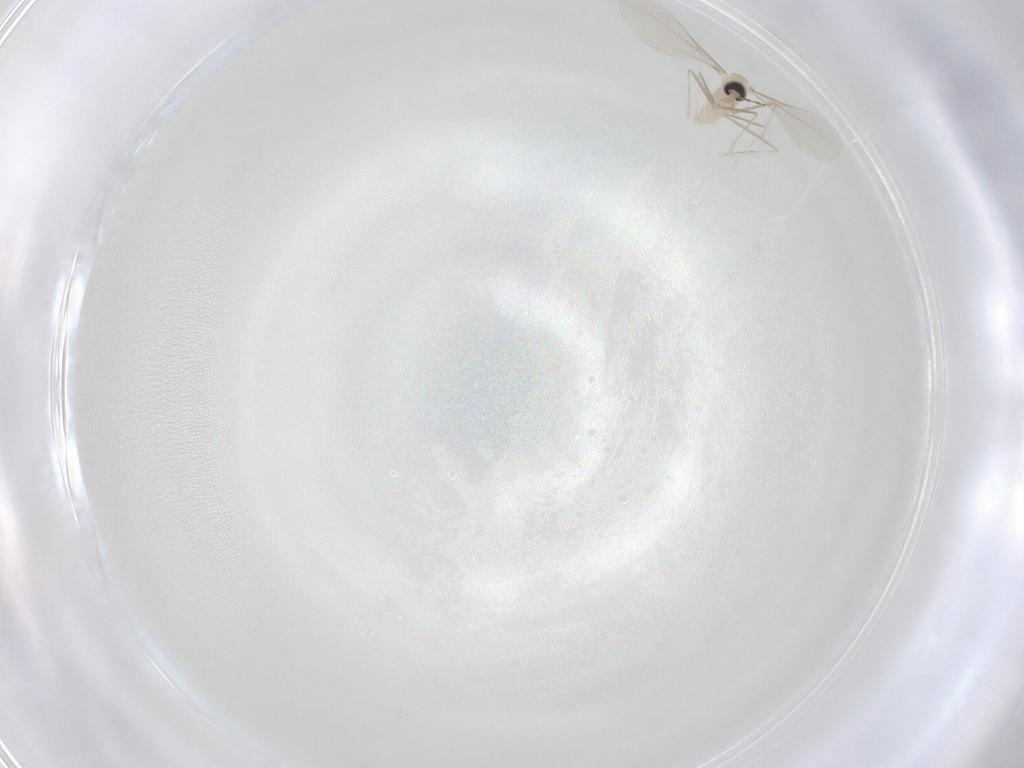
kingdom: Animalia
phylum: Arthropoda
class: Insecta
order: Diptera
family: Cecidomyiidae
